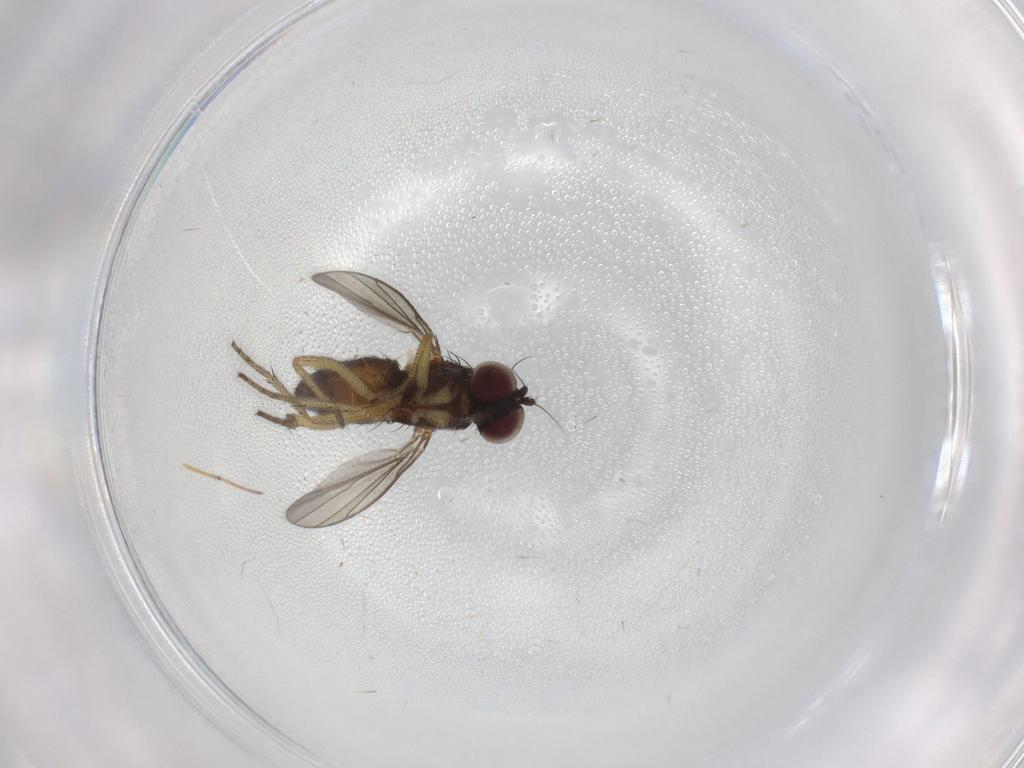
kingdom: Animalia
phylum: Arthropoda
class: Insecta
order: Diptera
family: Dolichopodidae
